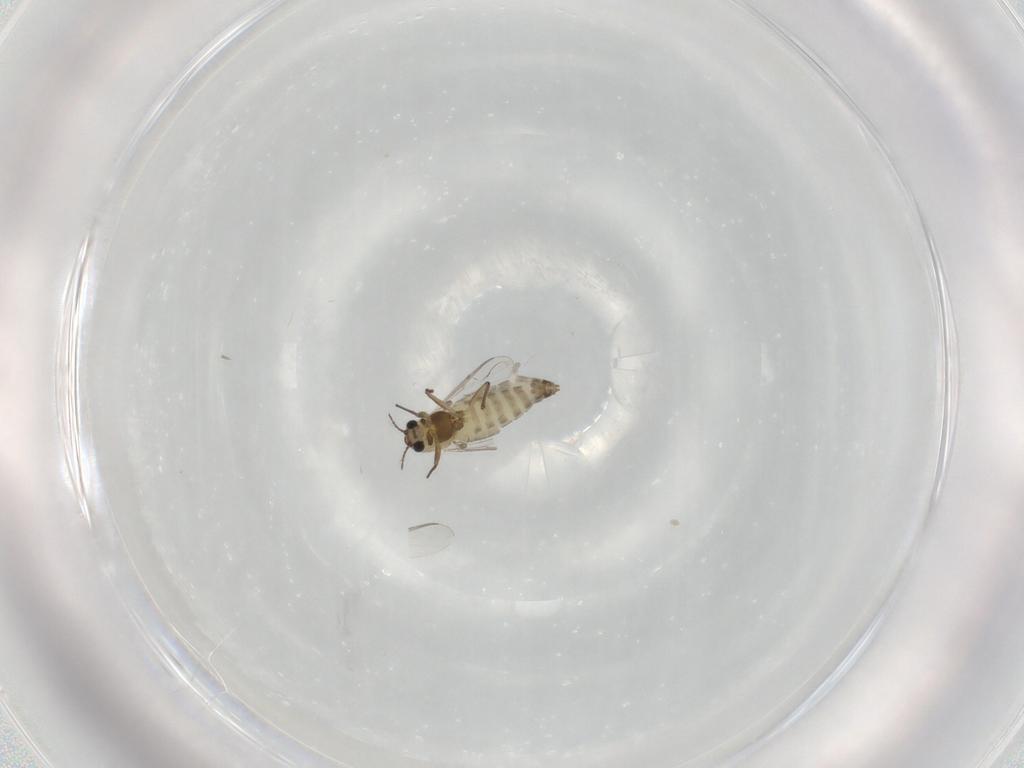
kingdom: Animalia
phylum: Arthropoda
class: Insecta
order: Diptera
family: Chironomidae
